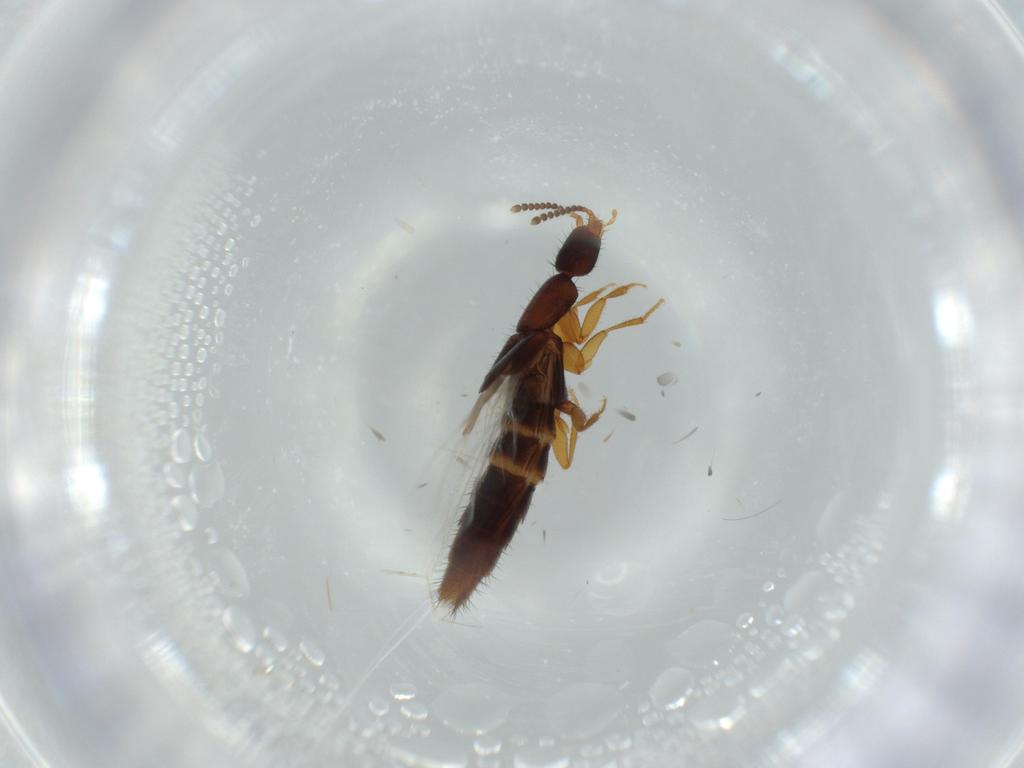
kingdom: Animalia
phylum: Arthropoda
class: Insecta
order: Coleoptera
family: Staphylinidae
